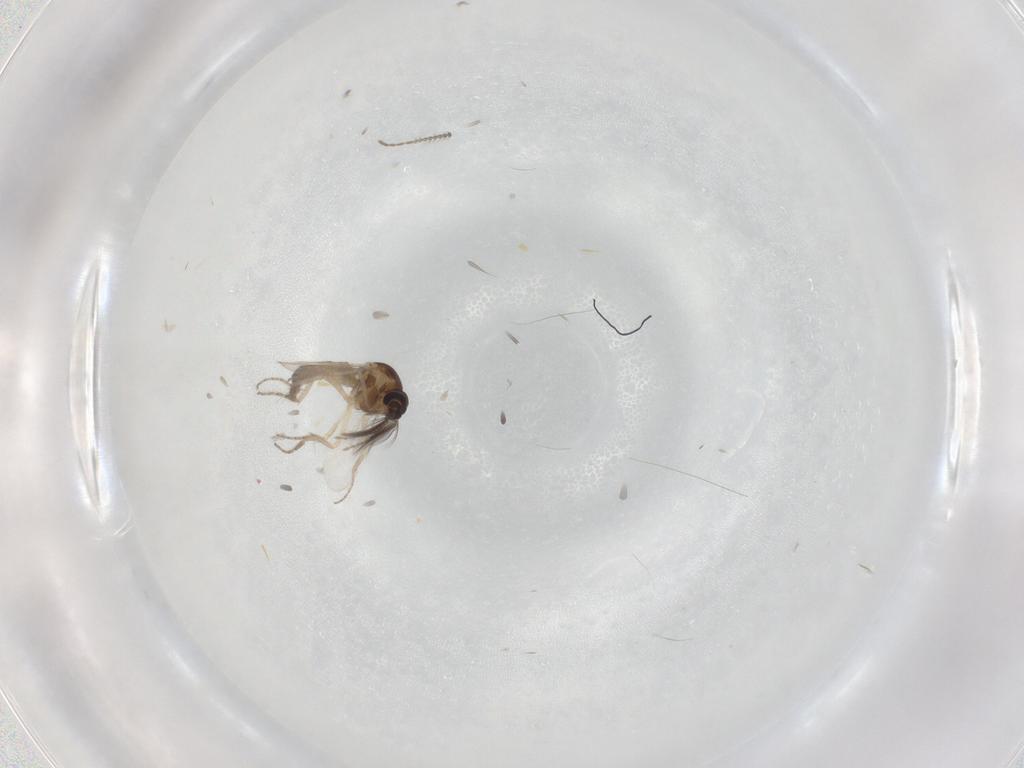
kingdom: Animalia
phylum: Arthropoda
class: Insecta
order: Diptera
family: Ceratopogonidae
